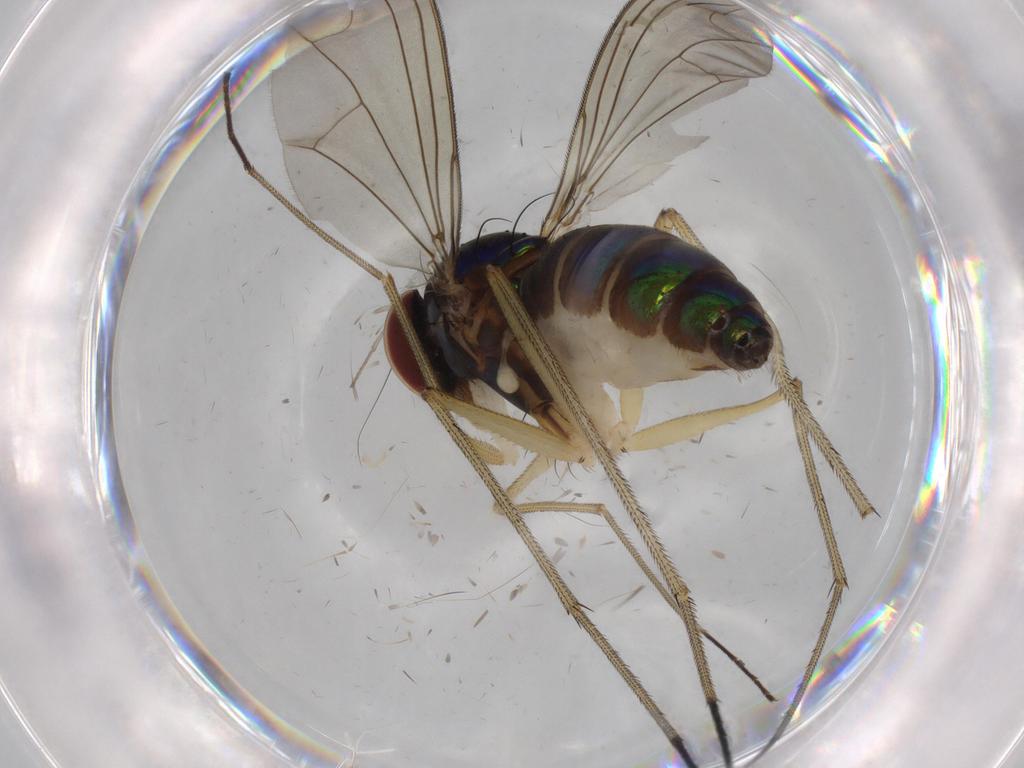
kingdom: Animalia
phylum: Arthropoda
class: Insecta
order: Diptera
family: Dolichopodidae
